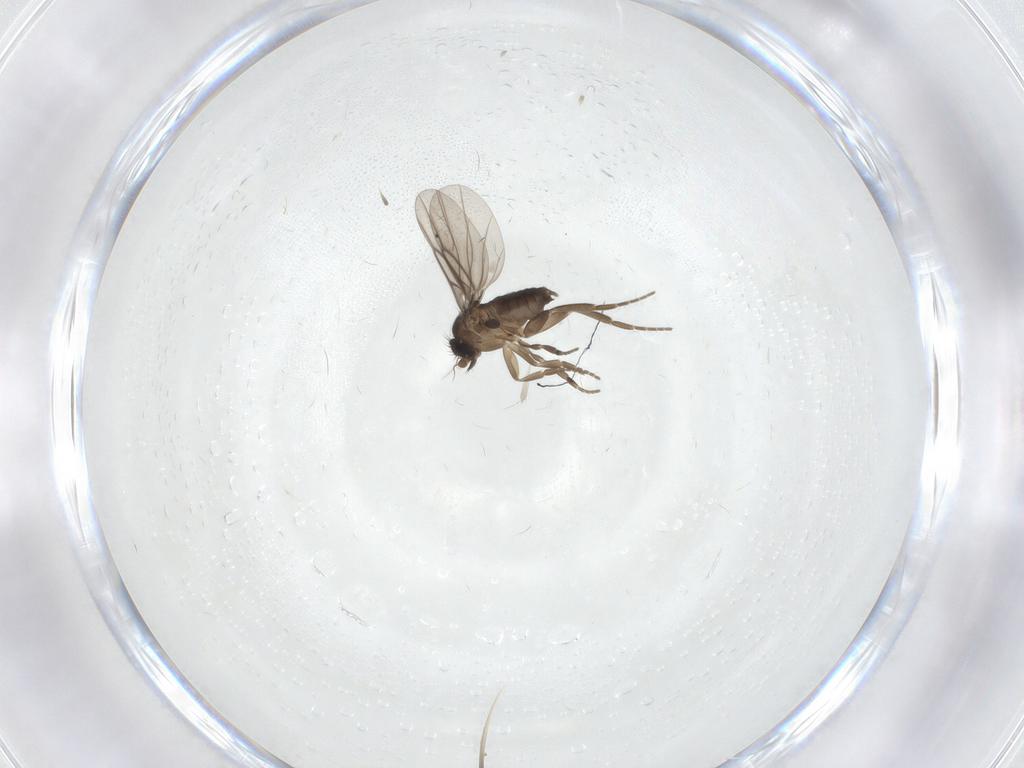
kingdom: Animalia
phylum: Arthropoda
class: Insecta
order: Diptera
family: Phoridae
